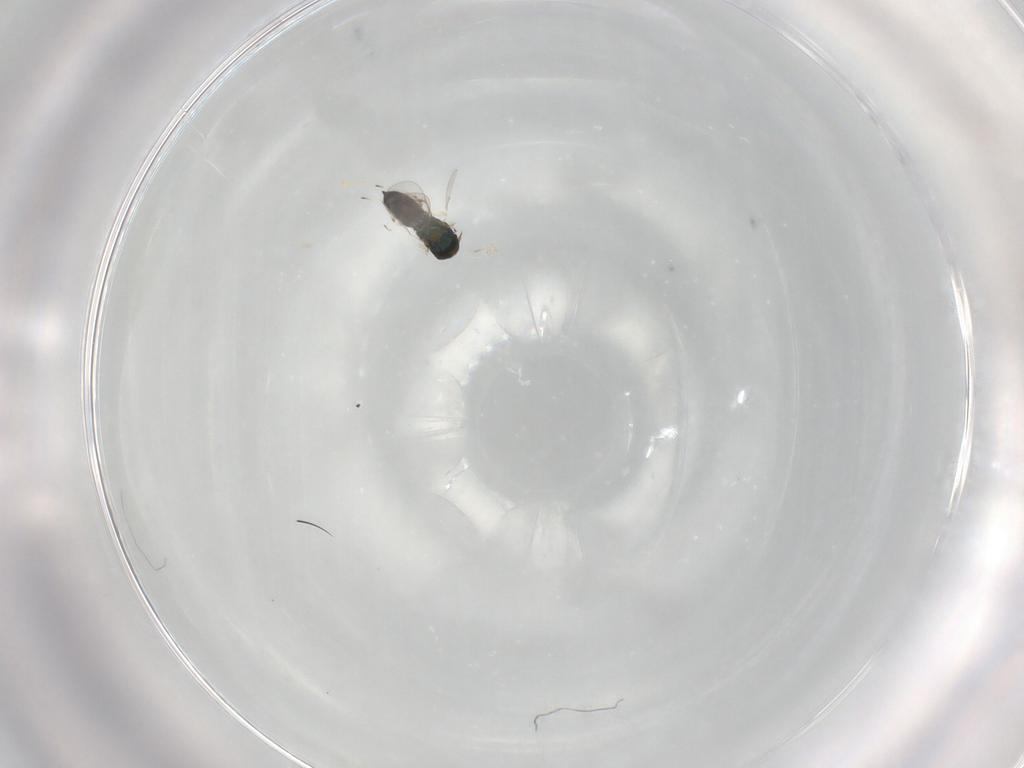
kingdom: Animalia
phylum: Arthropoda
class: Insecta
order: Hymenoptera
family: Eulophidae
